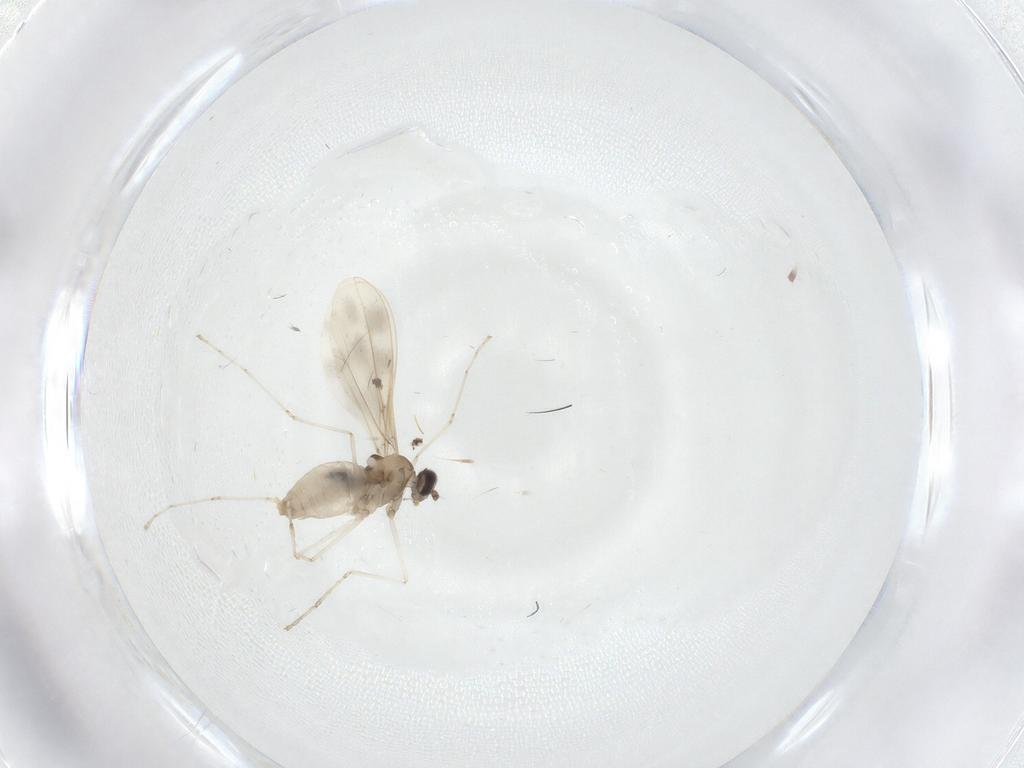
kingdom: Animalia
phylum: Arthropoda
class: Insecta
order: Diptera
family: Cecidomyiidae
